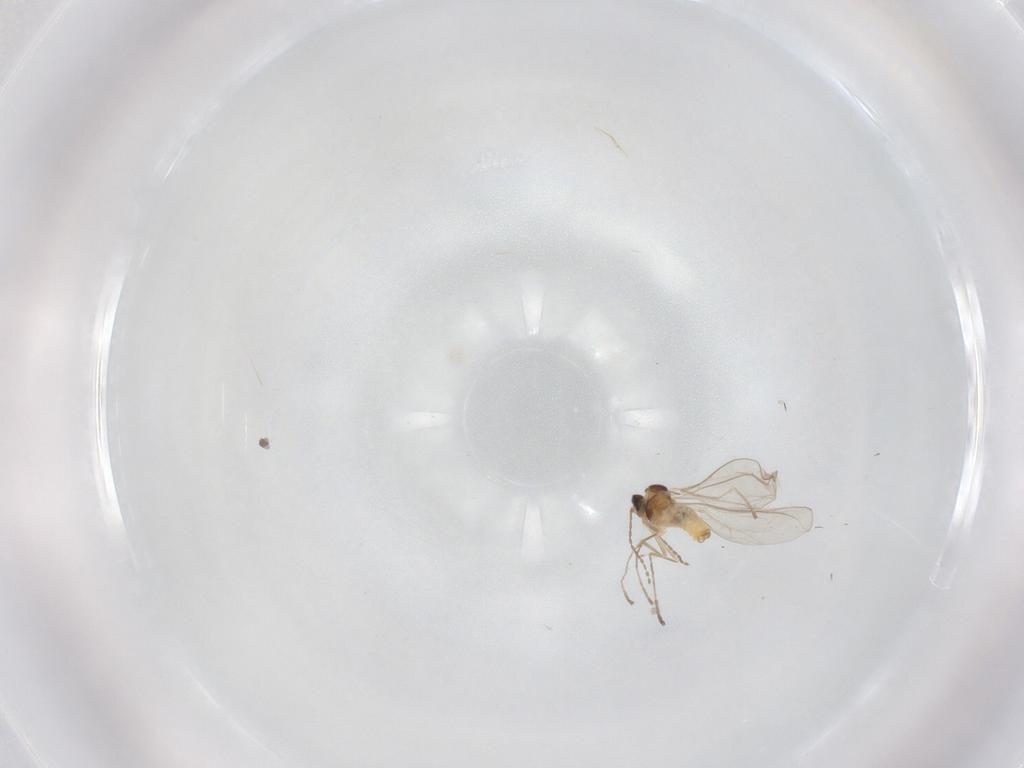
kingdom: Animalia
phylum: Arthropoda
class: Insecta
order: Diptera
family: Cecidomyiidae
